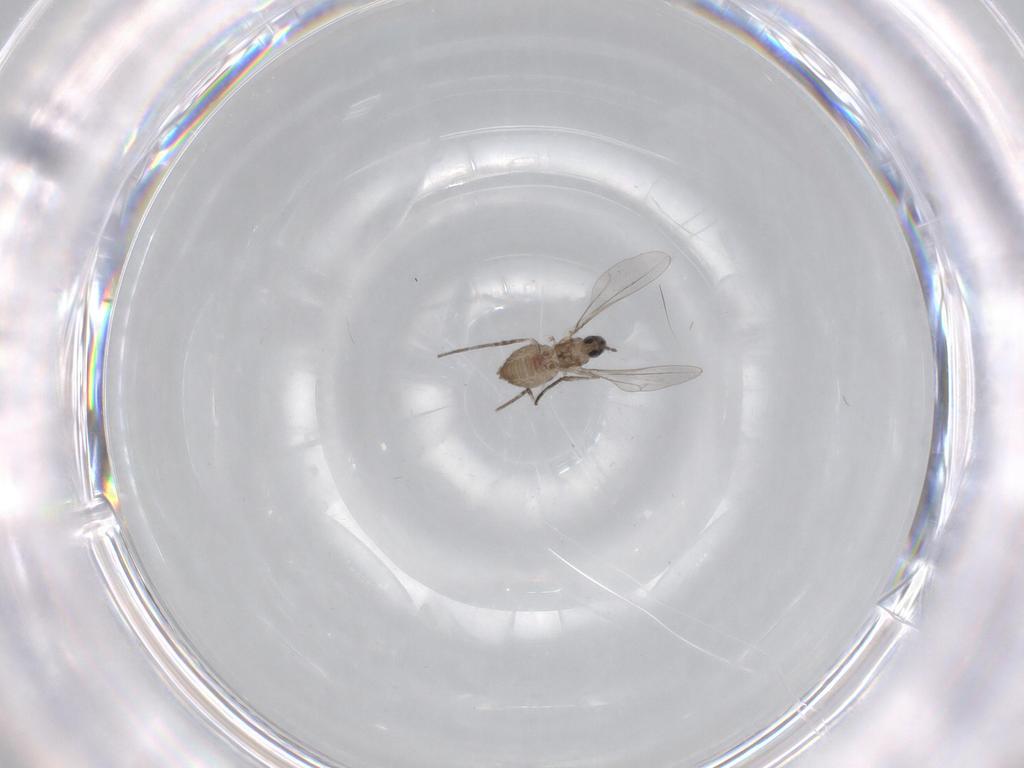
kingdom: Animalia
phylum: Arthropoda
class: Insecta
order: Diptera
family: Cecidomyiidae
